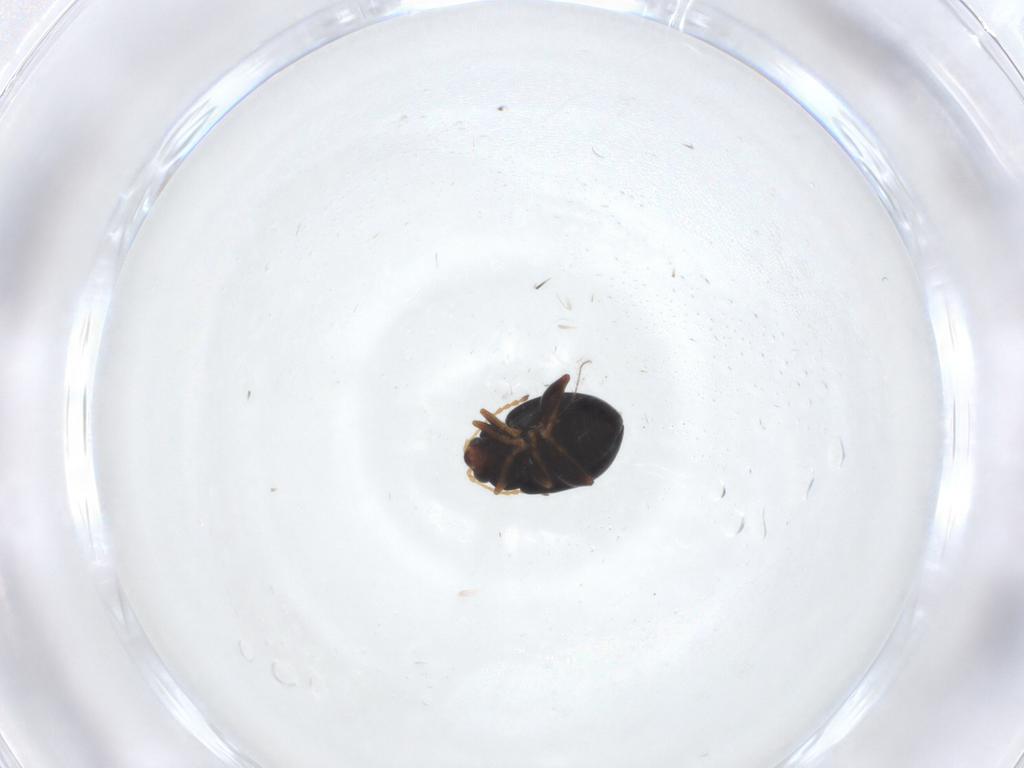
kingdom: Animalia
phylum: Arthropoda
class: Insecta
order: Coleoptera
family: Chrysomelidae
